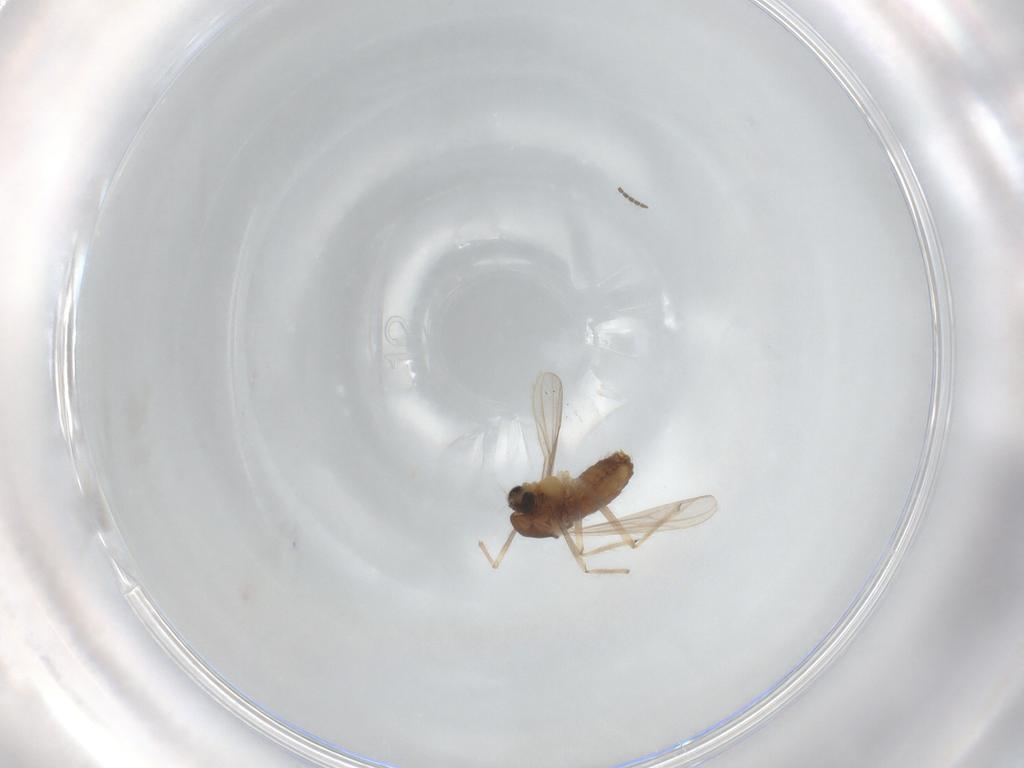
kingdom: Animalia
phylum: Arthropoda
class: Insecta
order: Diptera
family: Chironomidae
